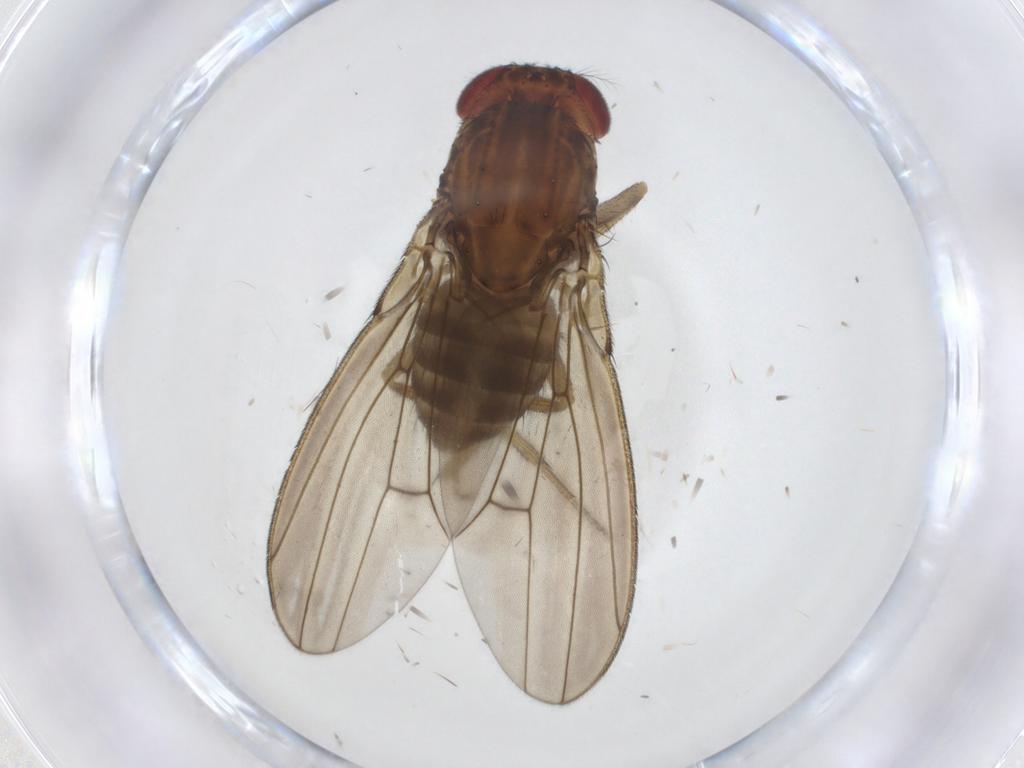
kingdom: Animalia
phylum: Arthropoda
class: Insecta
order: Diptera
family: Drosophilidae
